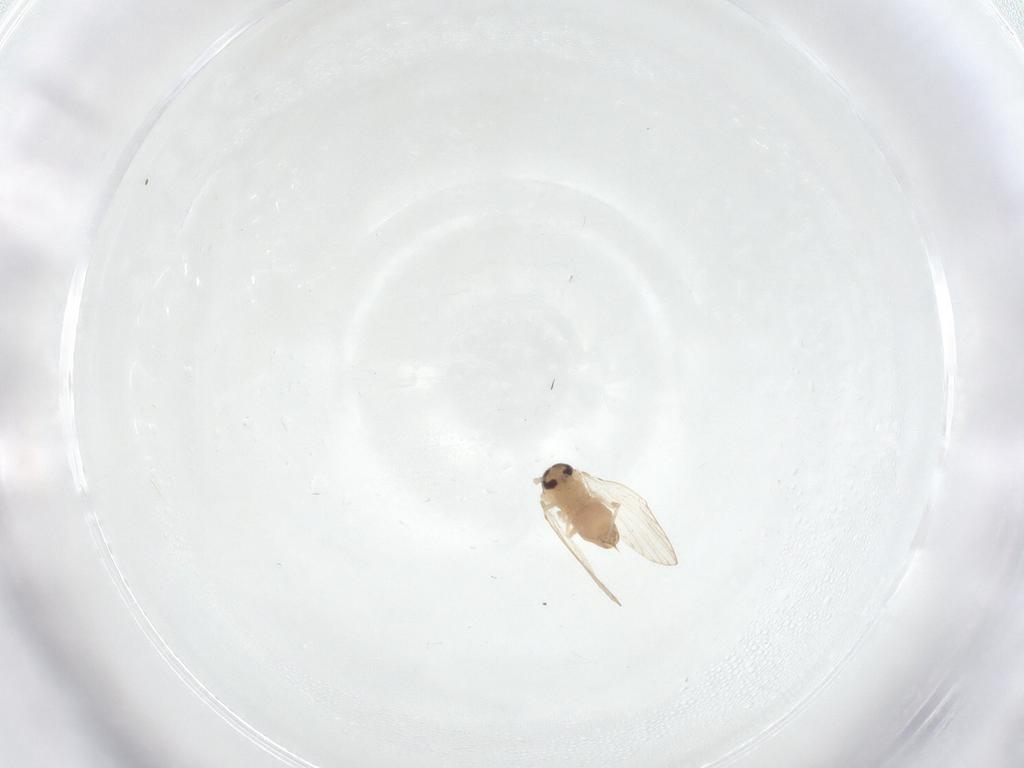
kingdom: Animalia
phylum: Arthropoda
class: Insecta
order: Diptera
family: Psychodidae
